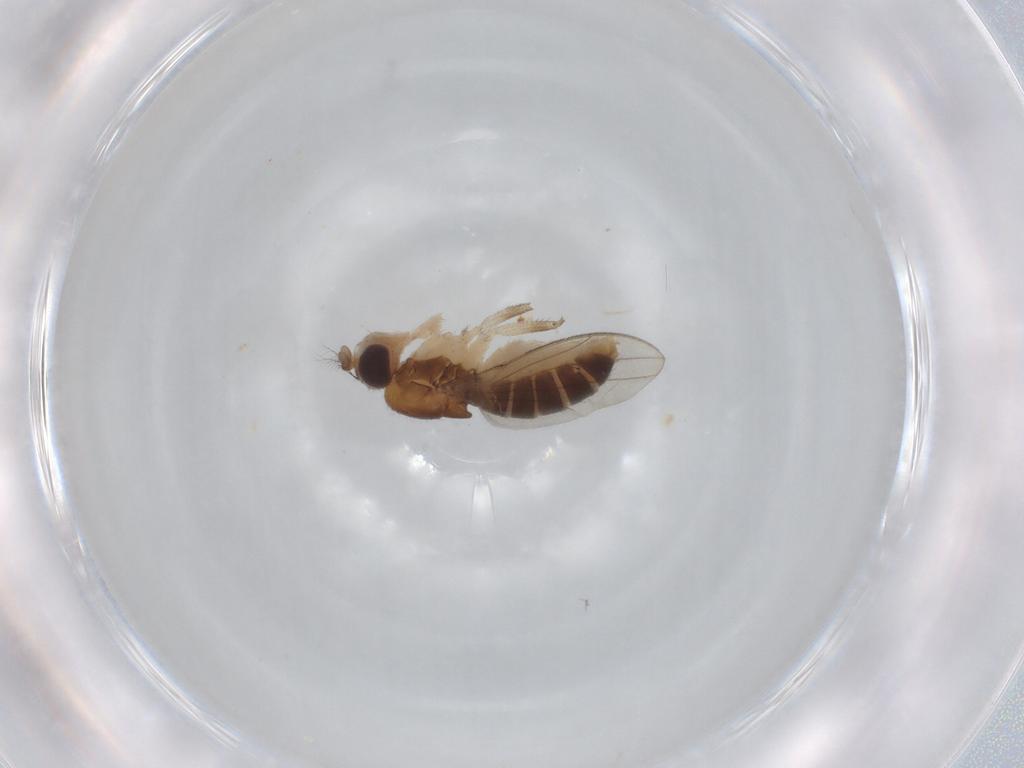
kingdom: Animalia
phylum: Arthropoda
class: Insecta
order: Diptera
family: Drosophilidae
